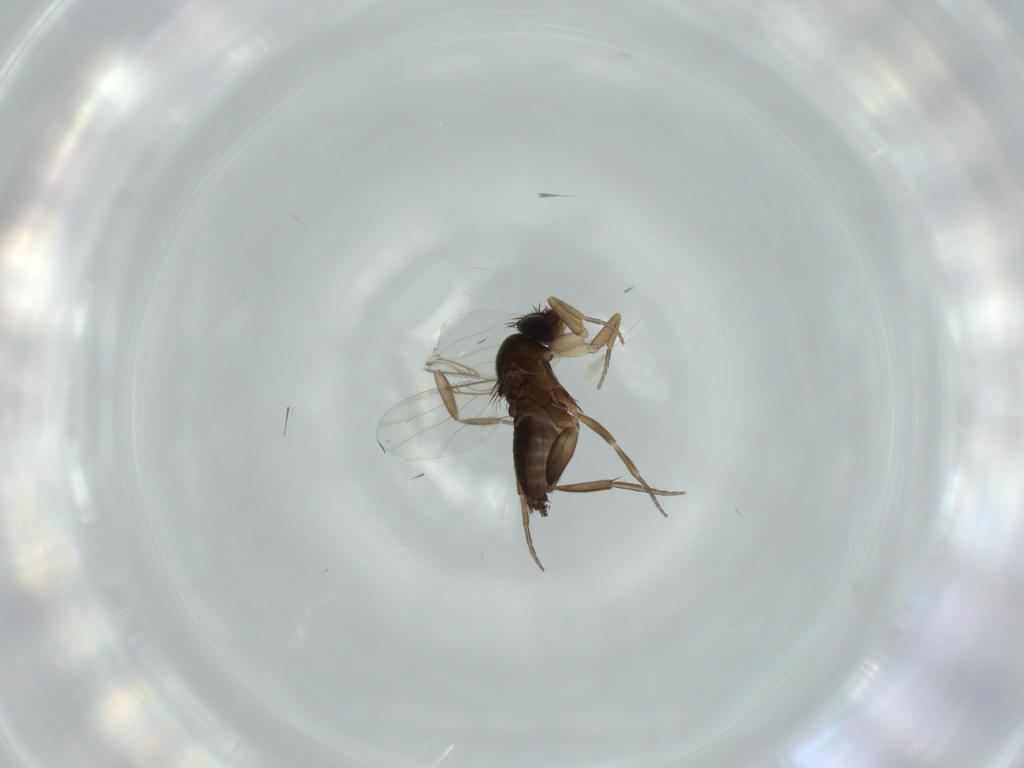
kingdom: Animalia
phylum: Arthropoda
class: Insecta
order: Diptera
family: Phoridae
